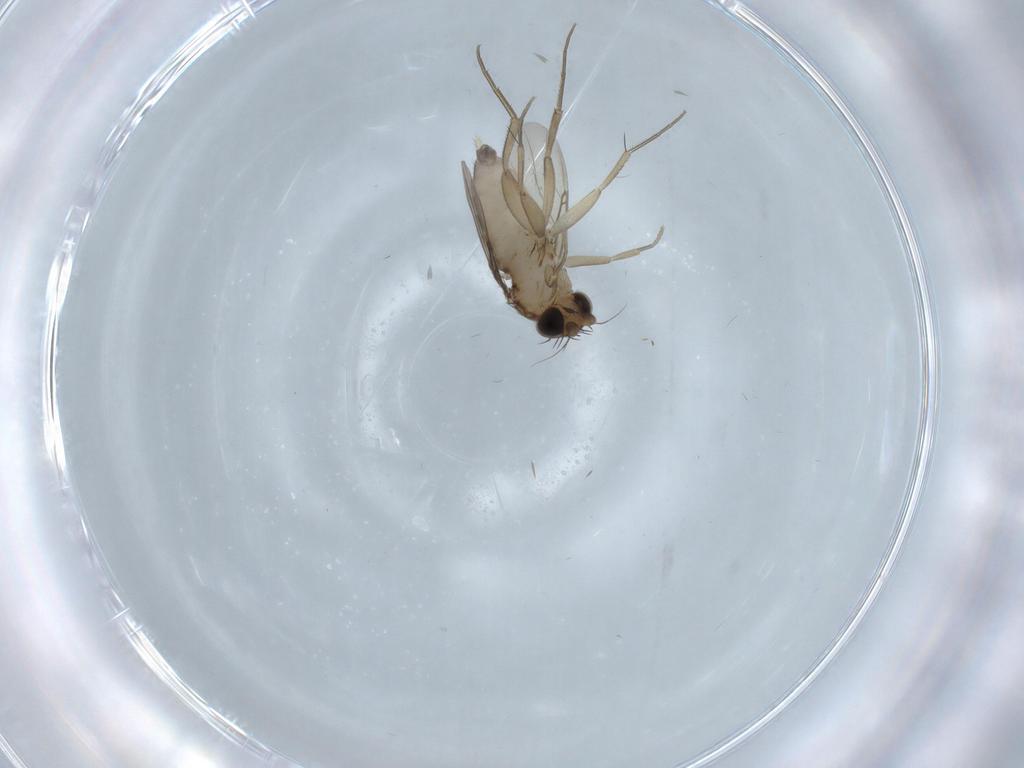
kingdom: Animalia
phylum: Arthropoda
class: Insecta
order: Diptera
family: Phoridae
